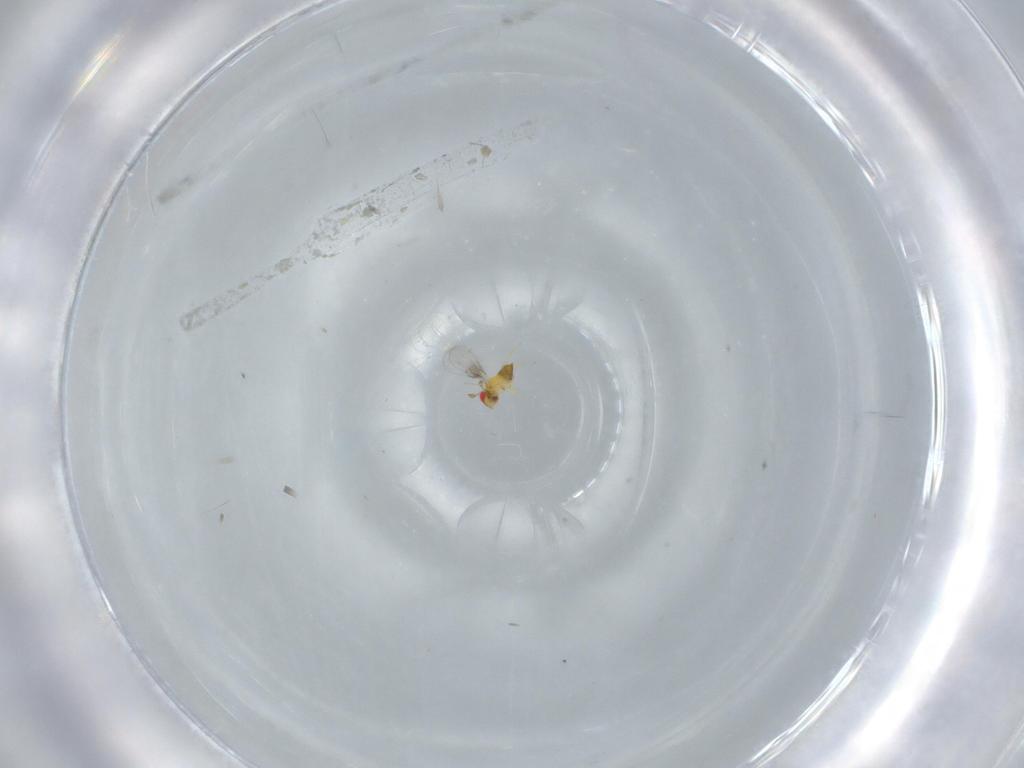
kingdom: Animalia
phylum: Arthropoda
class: Insecta
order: Hymenoptera
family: Trichogrammatidae
